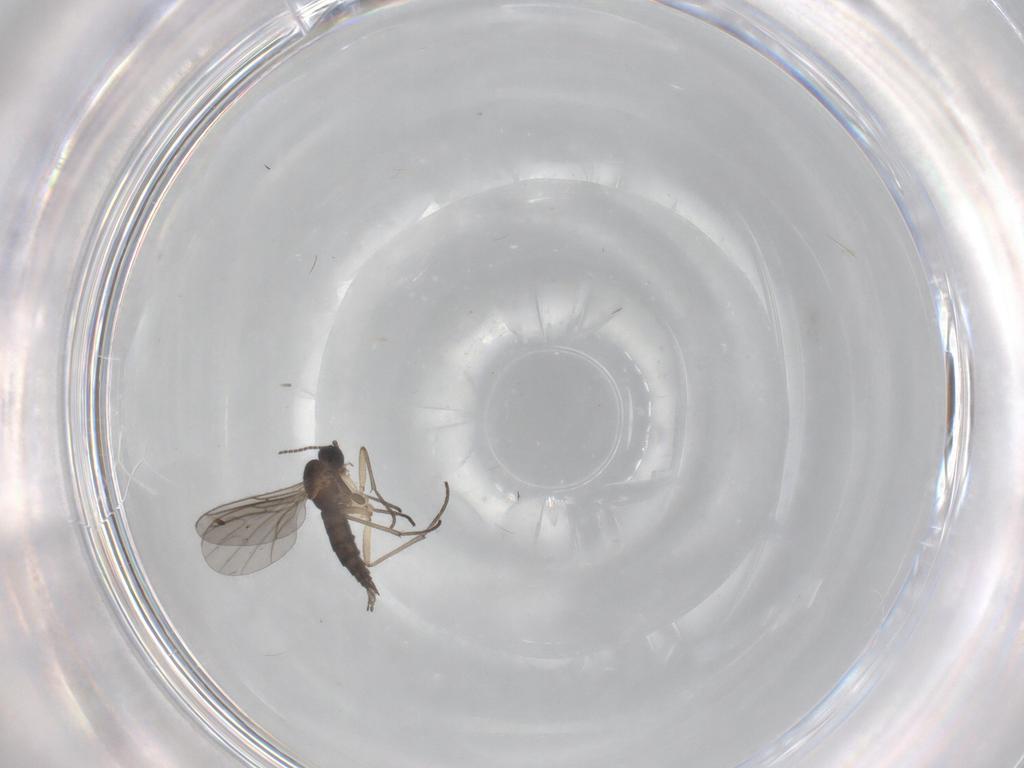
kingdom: Animalia
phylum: Arthropoda
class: Insecta
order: Diptera
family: Sciaridae
